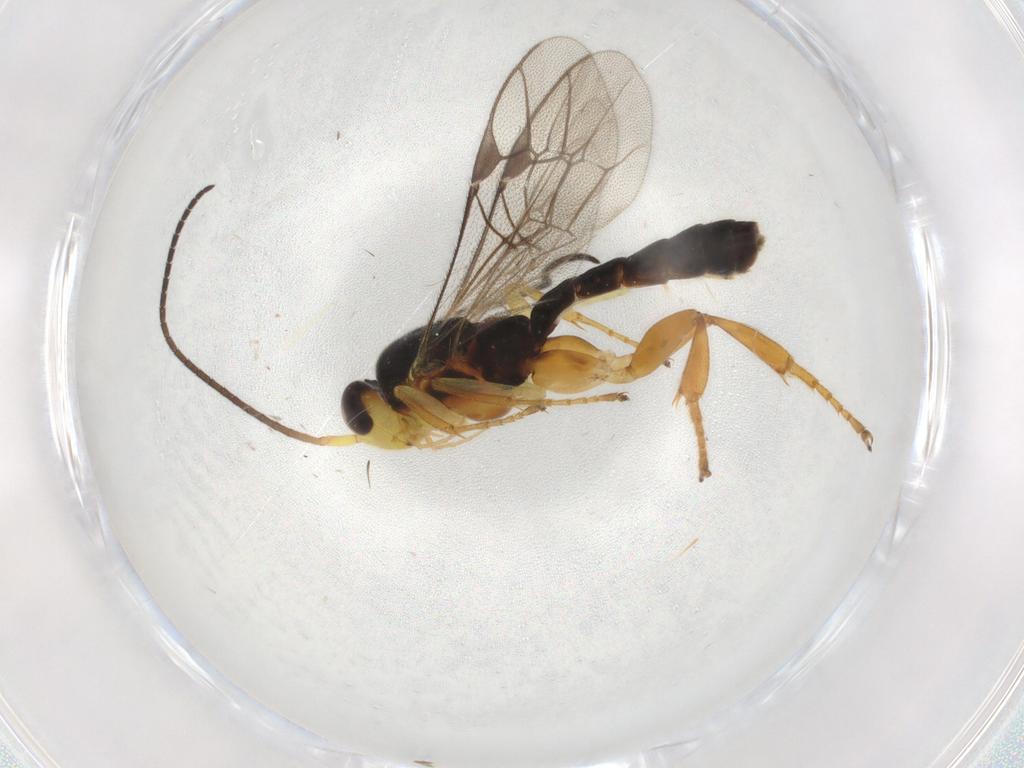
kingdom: Animalia
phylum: Arthropoda
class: Insecta
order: Hymenoptera
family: Ichneumonidae
